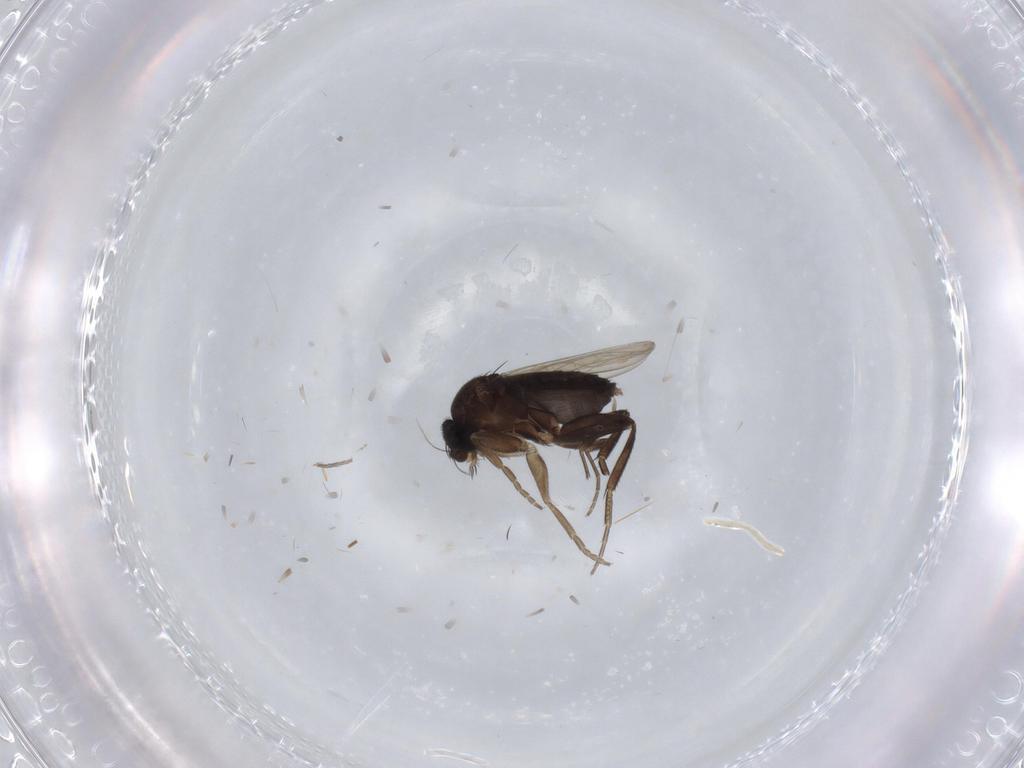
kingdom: Animalia
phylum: Arthropoda
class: Insecta
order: Diptera
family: Phoridae
